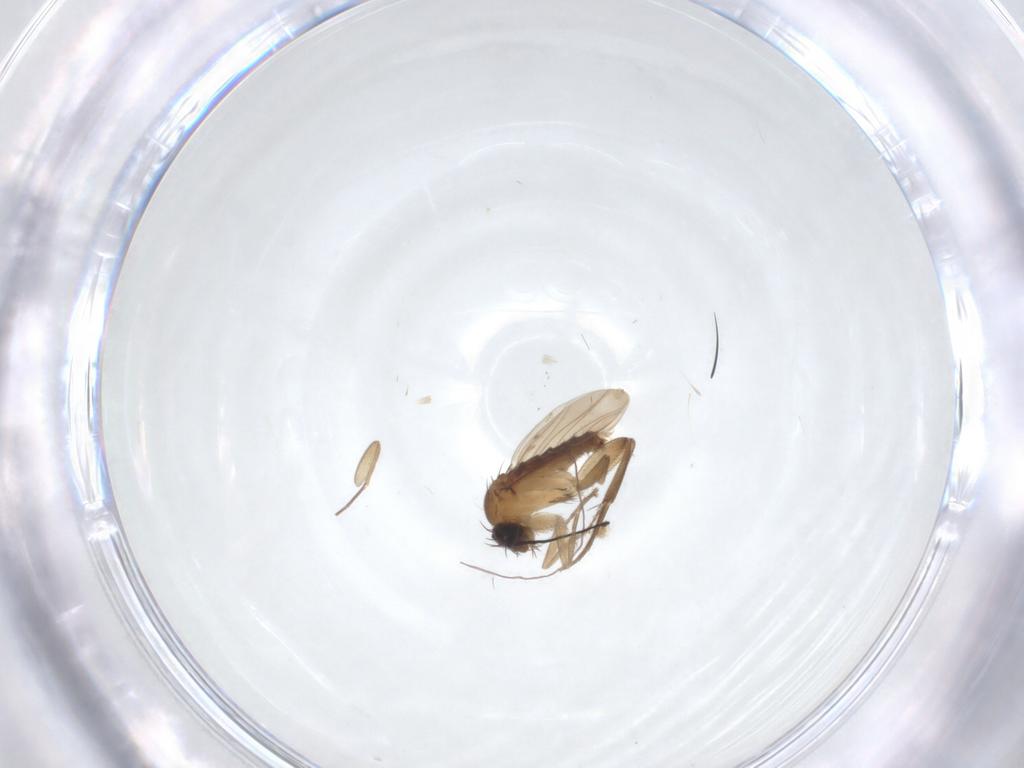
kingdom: Animalia
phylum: Arthropoda
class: Insecta
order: Diptera
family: Phoridae
